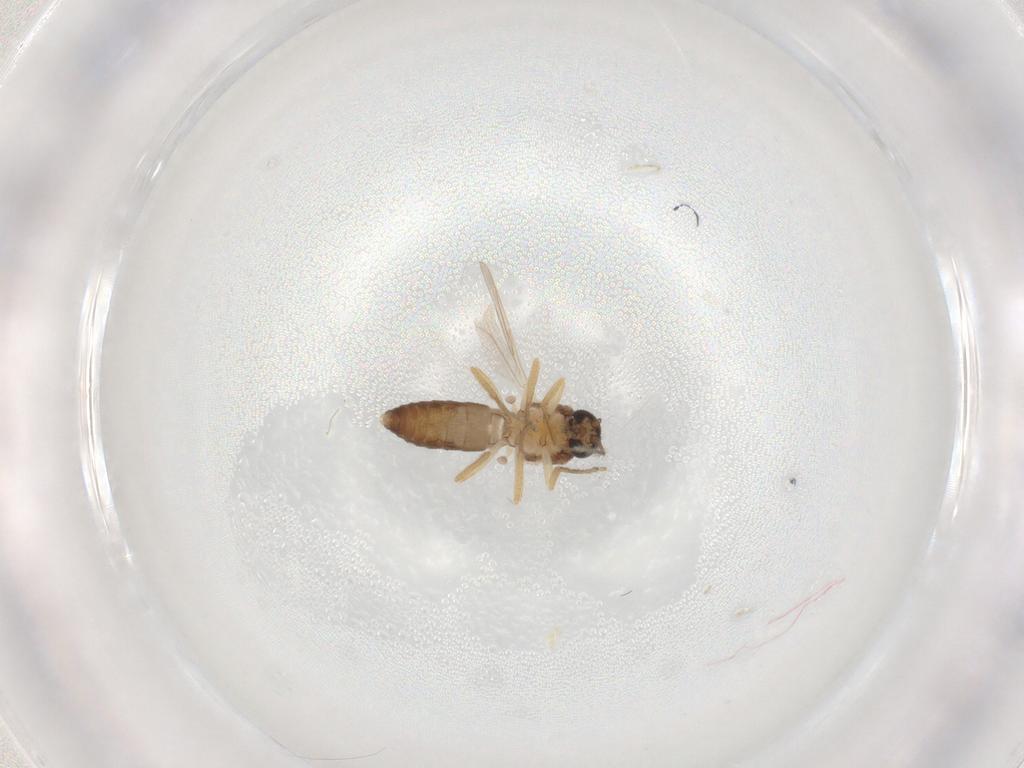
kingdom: Animalia
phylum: Arthropoda
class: Insecta
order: Diptera
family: Ceratopogonidae
